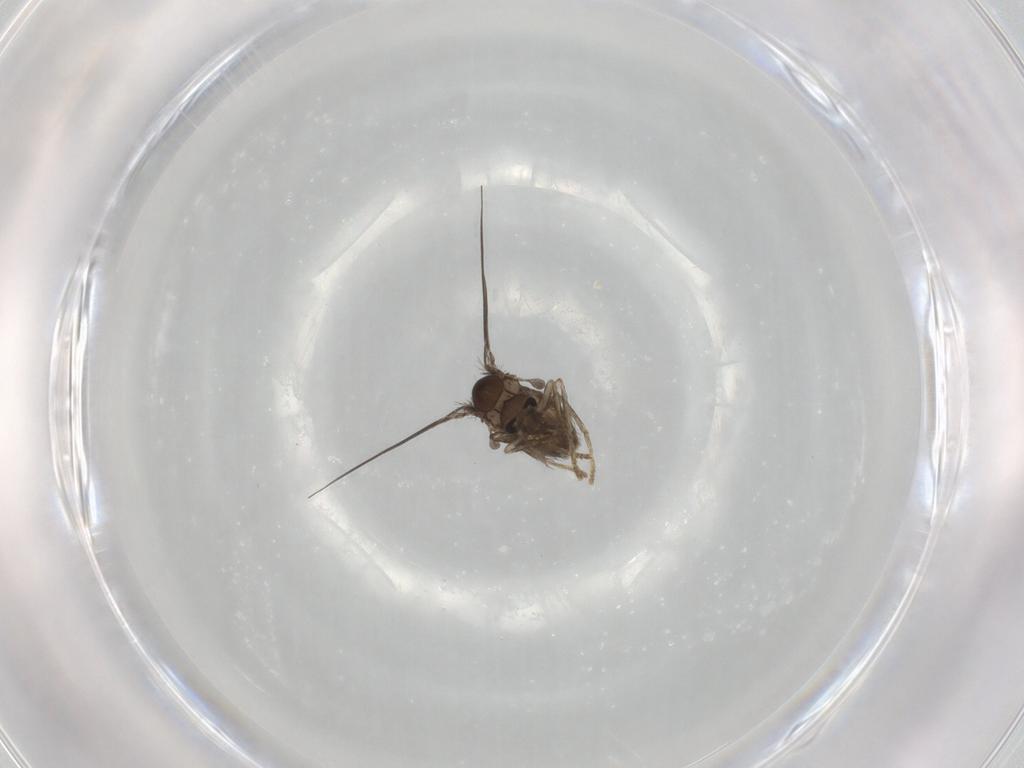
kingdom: Animalia
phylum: Arthropoda
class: Insecta
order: Diptera
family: Psychodidae
